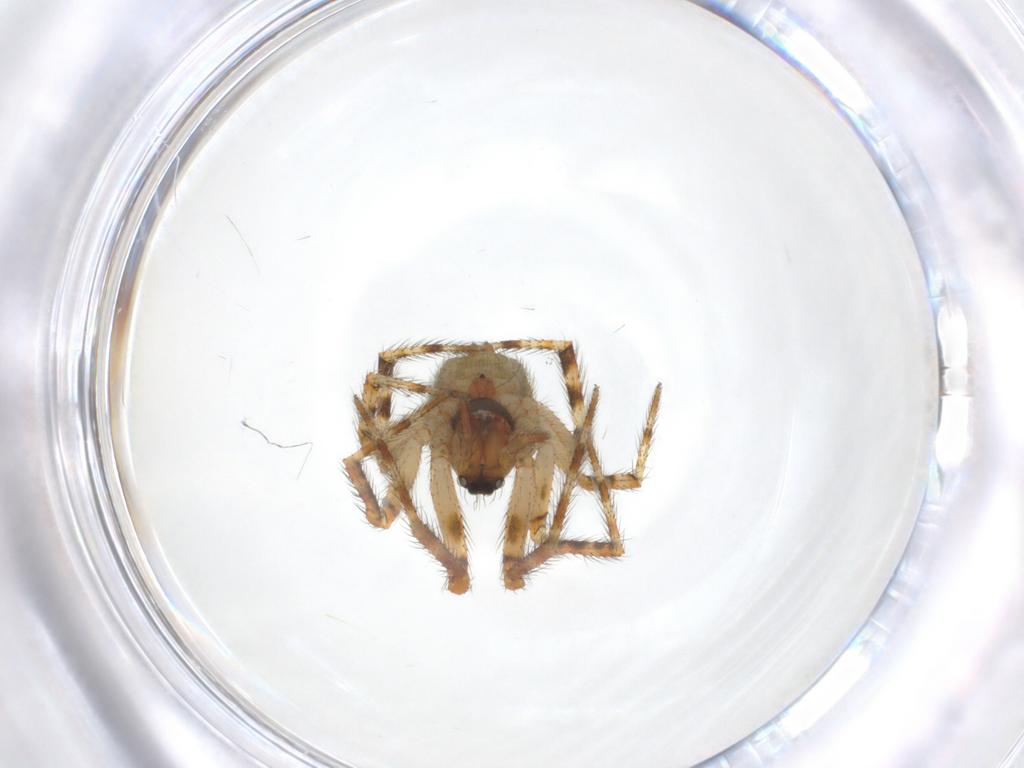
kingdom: Animalia
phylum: Arthropoda
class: Arachnida
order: Araneae
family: Theridiidae
